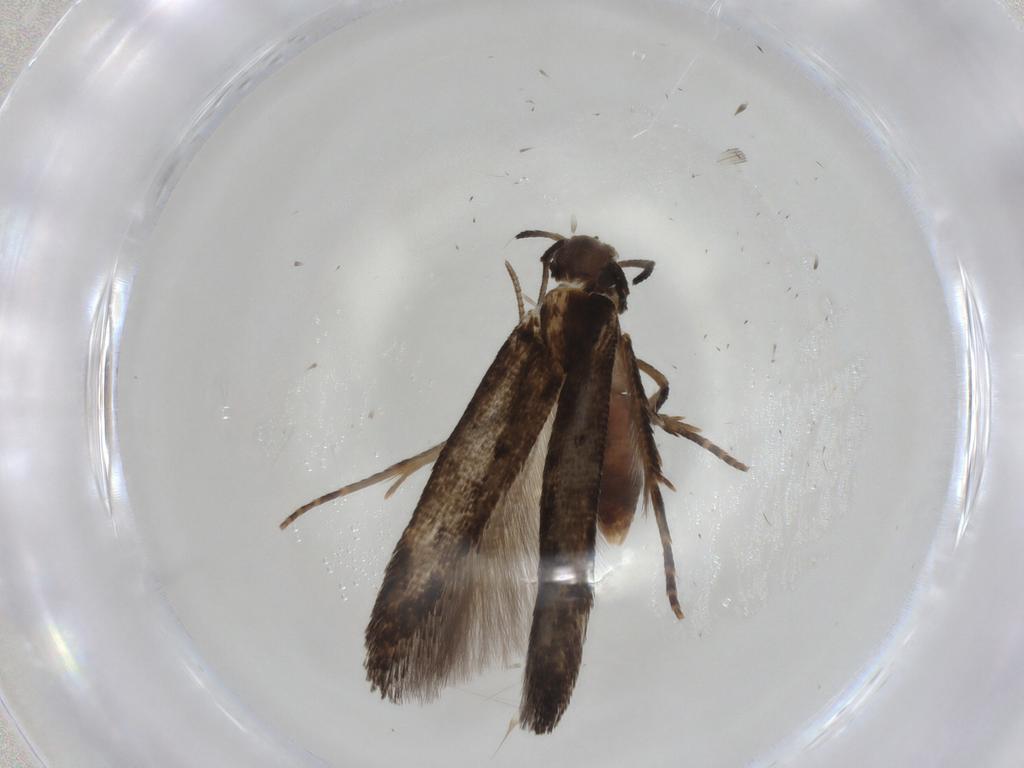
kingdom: Animalia
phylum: Arthropoda
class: Insecta
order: Lepidoptera
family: Cosmopterigidae
